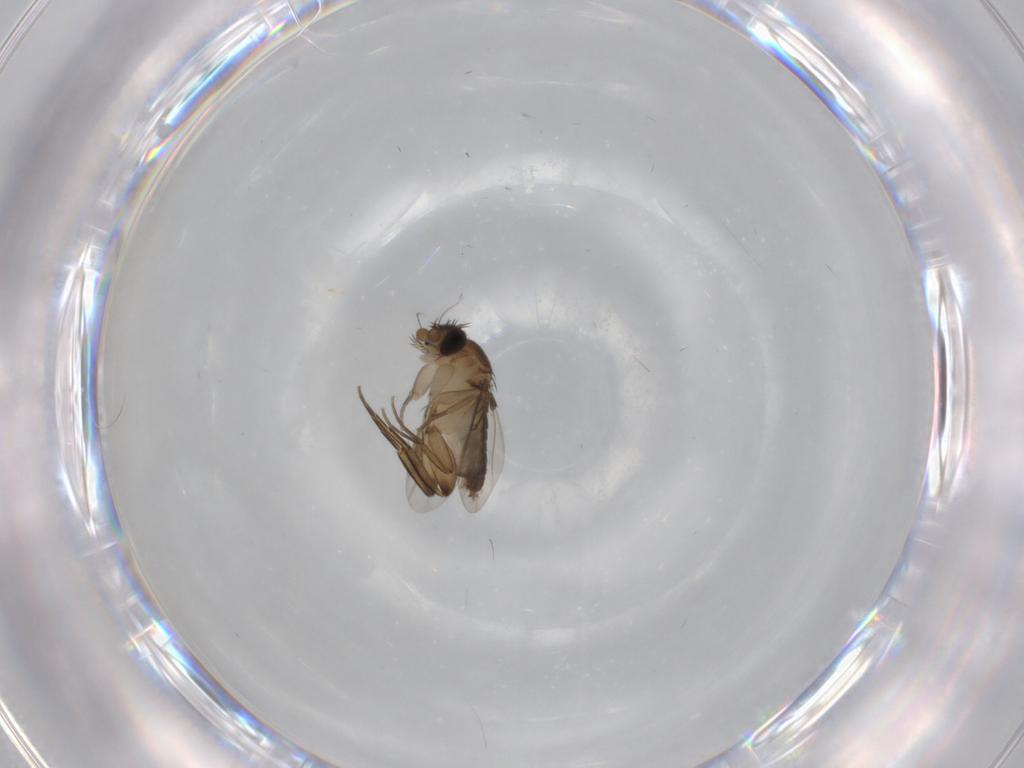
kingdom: Animalia
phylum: Arthropoda
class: Insecta
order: Diptera
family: Phoridae
